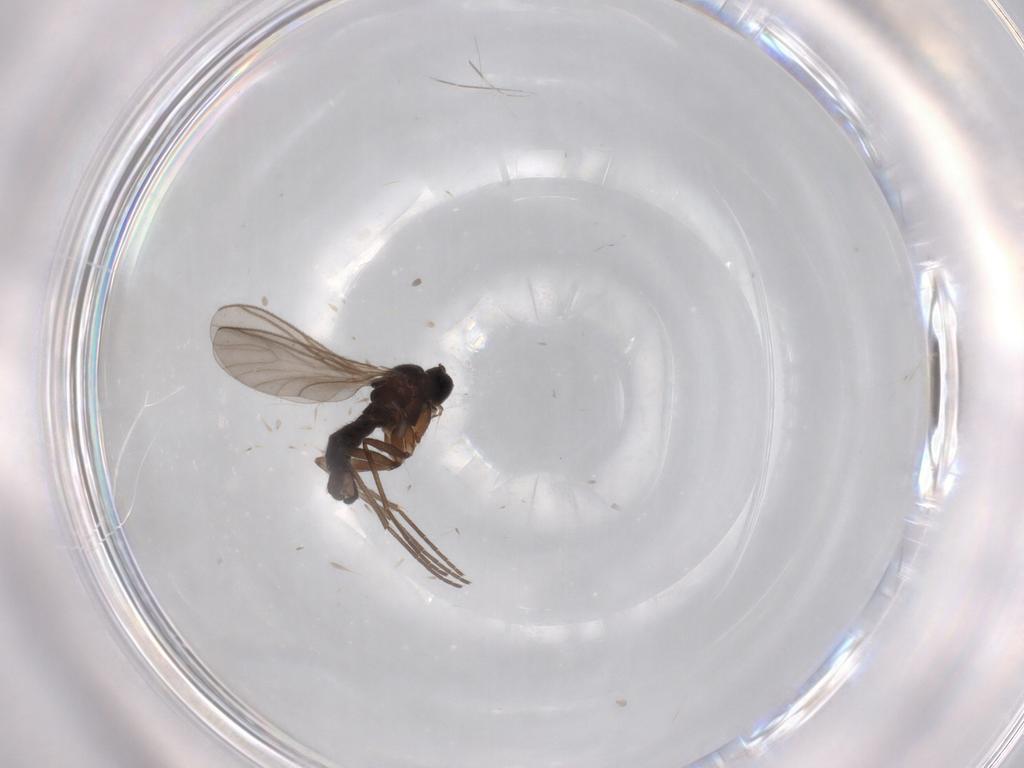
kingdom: Animalia
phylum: Arthropoda
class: Insecta
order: Diptera
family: Sciaridae
